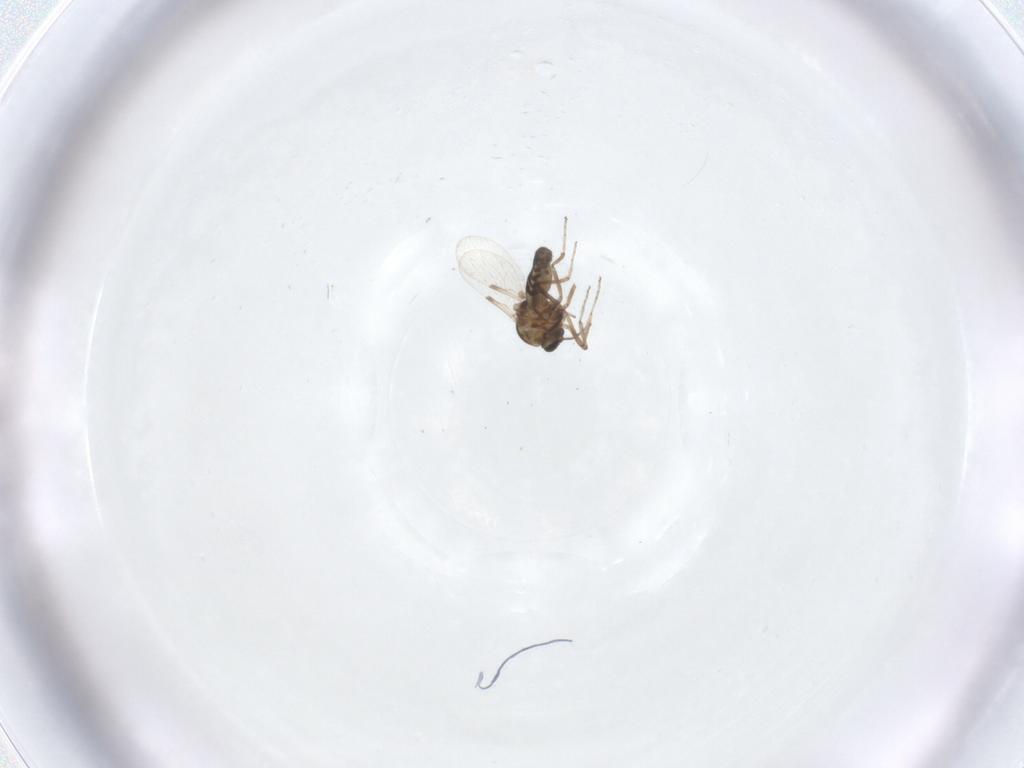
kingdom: Animalia
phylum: Arthropoda
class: Insecta
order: Diptera
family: Ceratopogonidae
